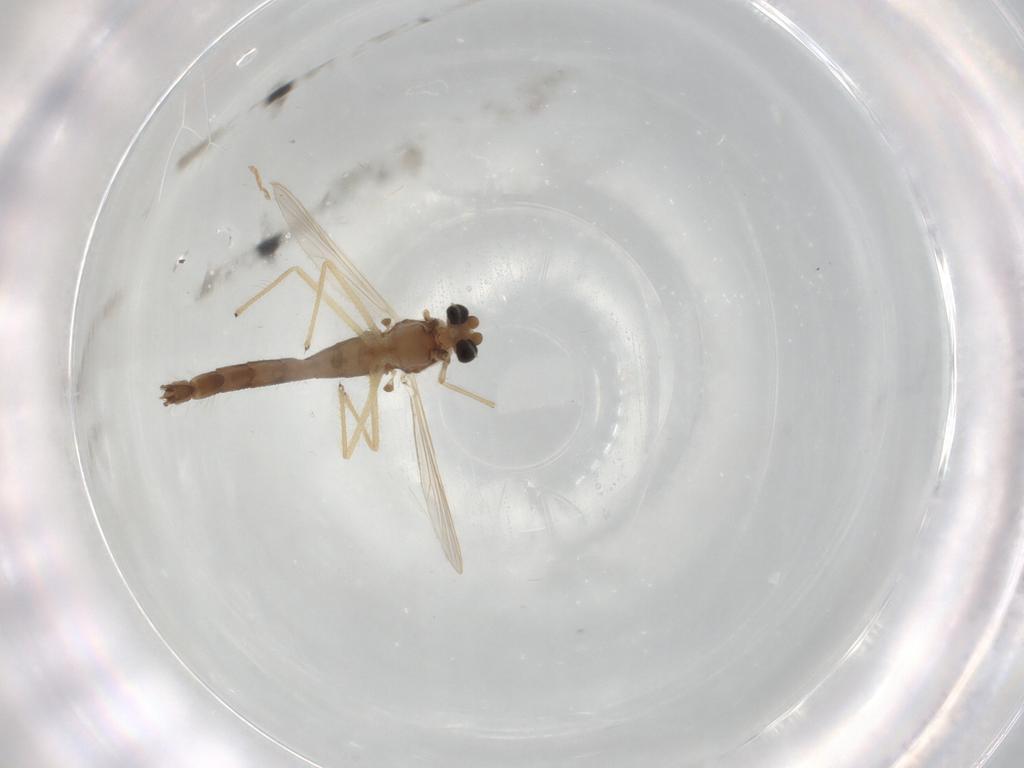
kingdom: Animalia
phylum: Arthropoda
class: Insecta
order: Diptera
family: Chironomidae
